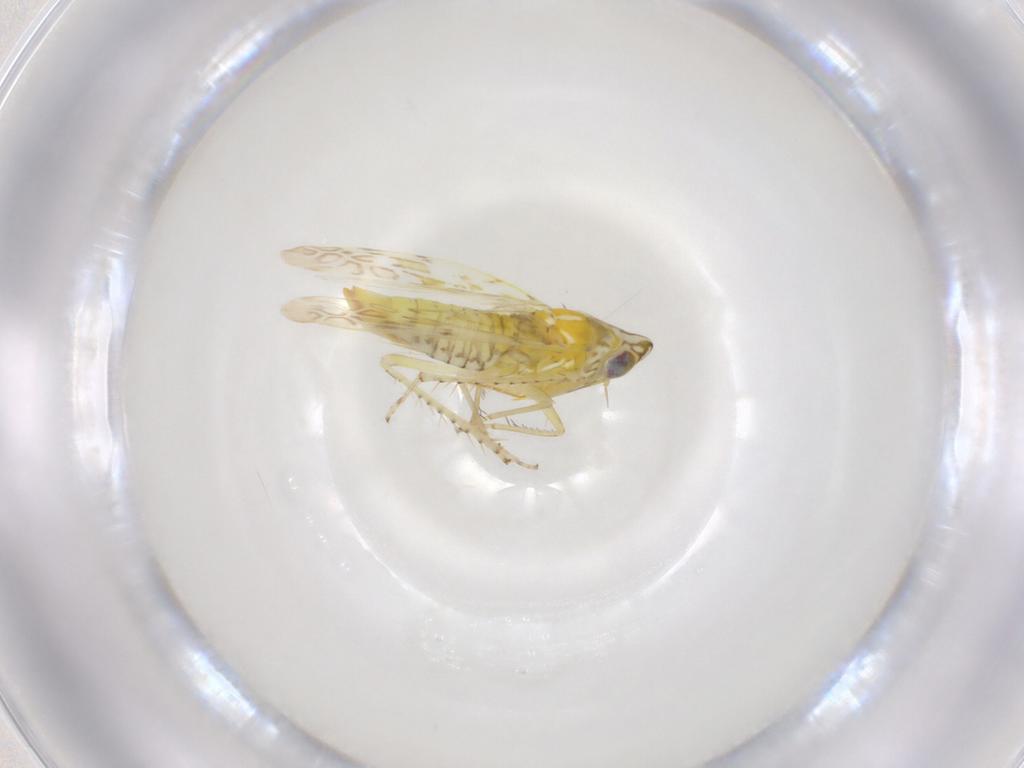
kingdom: Animalia
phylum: Arthropoda
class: Insecta
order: Hemiptera
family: Cicadellidae
